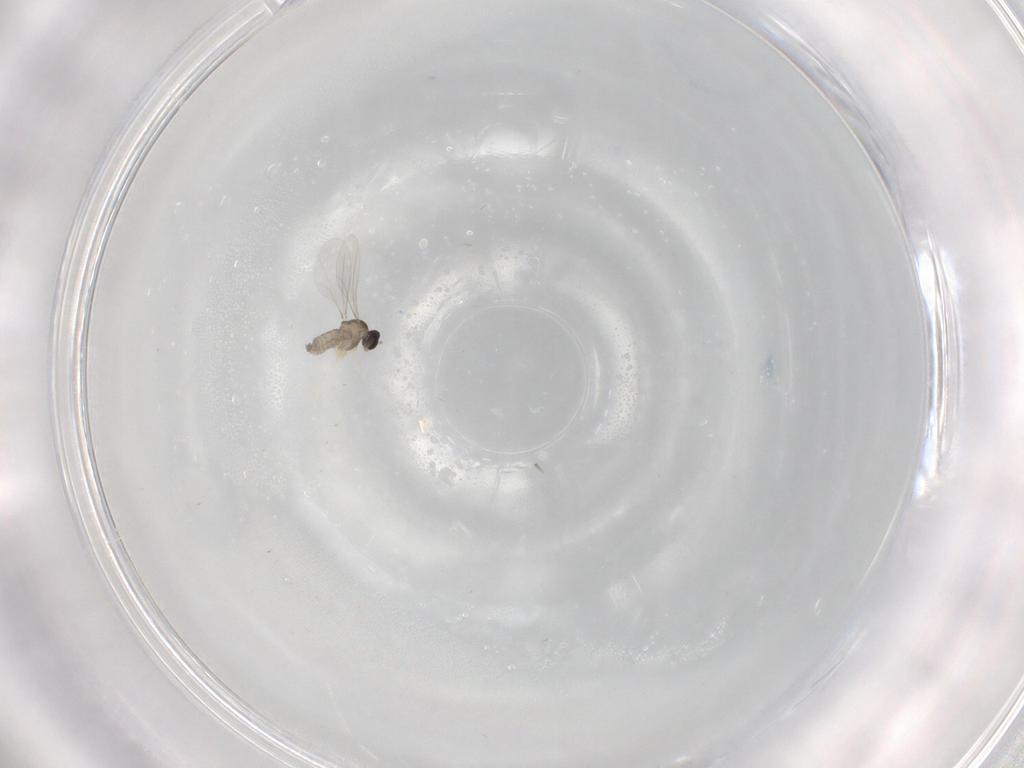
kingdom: Animalia
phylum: Arthropoda
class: Insecta
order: Diptera
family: Cecidomyiidae
